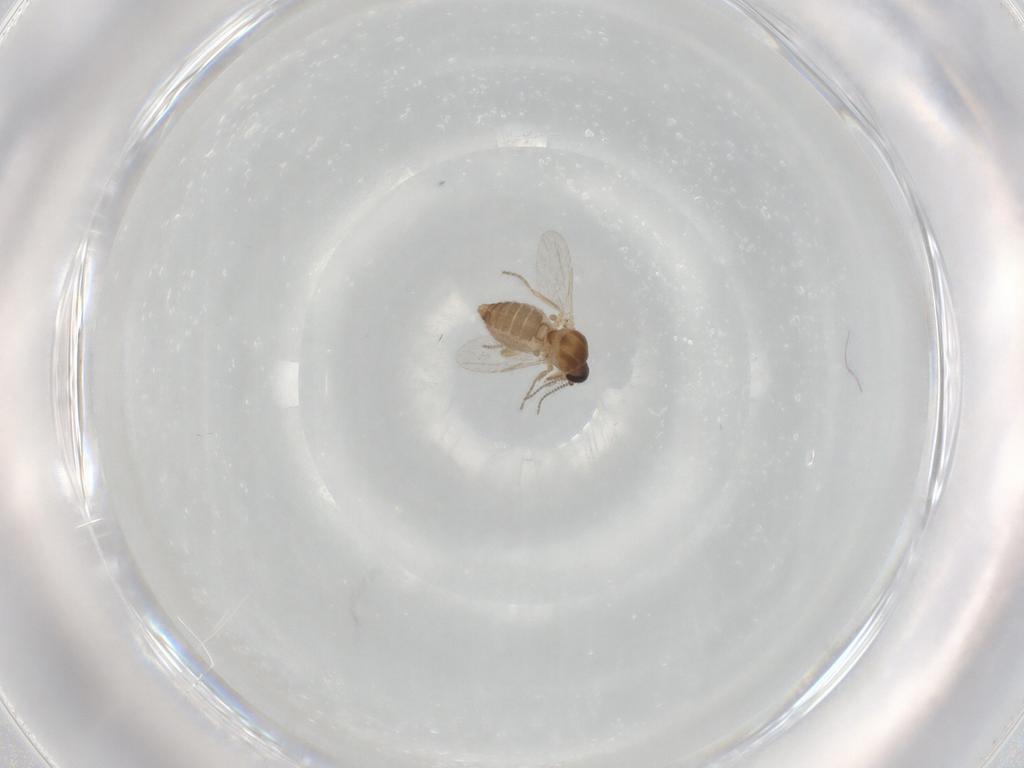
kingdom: Animalia
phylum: Arthropoda
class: Insecta
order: Diptera
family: Ceratopogonidae
